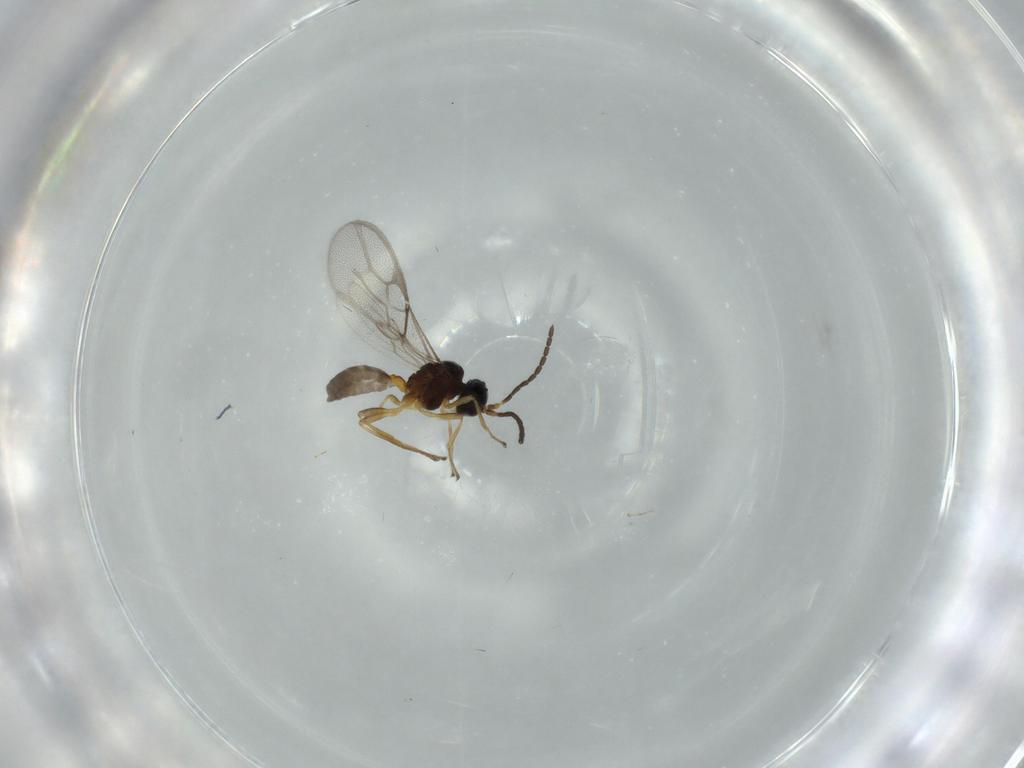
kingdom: Animalia
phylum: Arthropoda
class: Insecta
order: Hymenoptera
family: Braconidae
